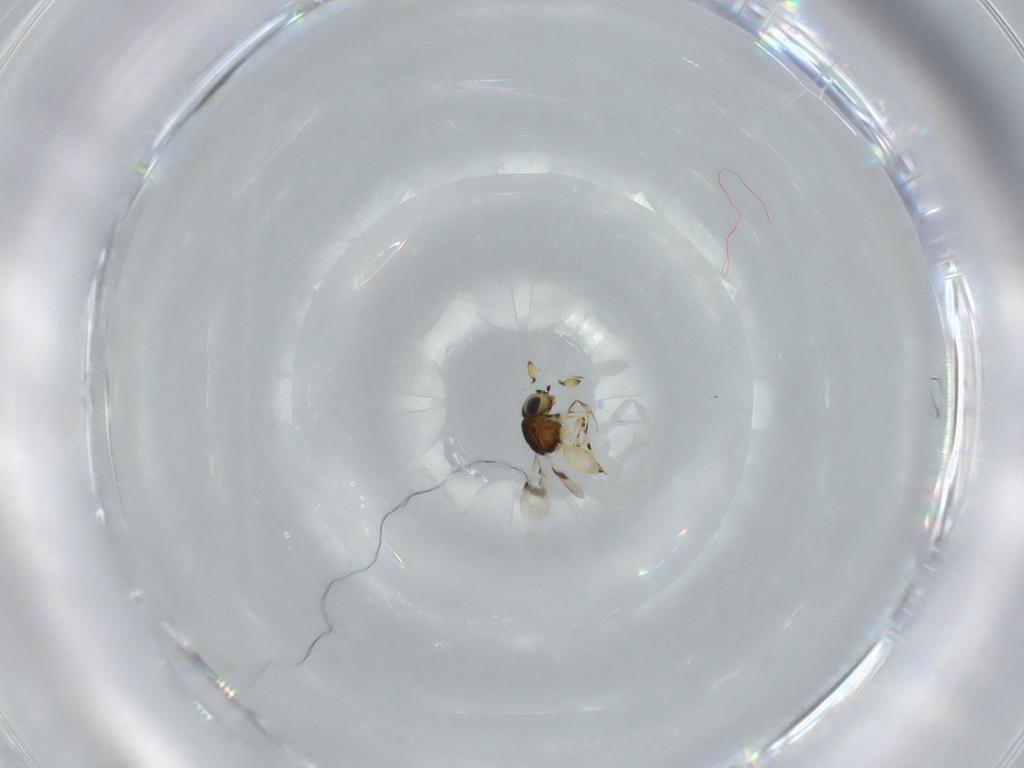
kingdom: Animalia
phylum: Arthropoda
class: Insecta
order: Hymenoptera
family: Scelionidae
